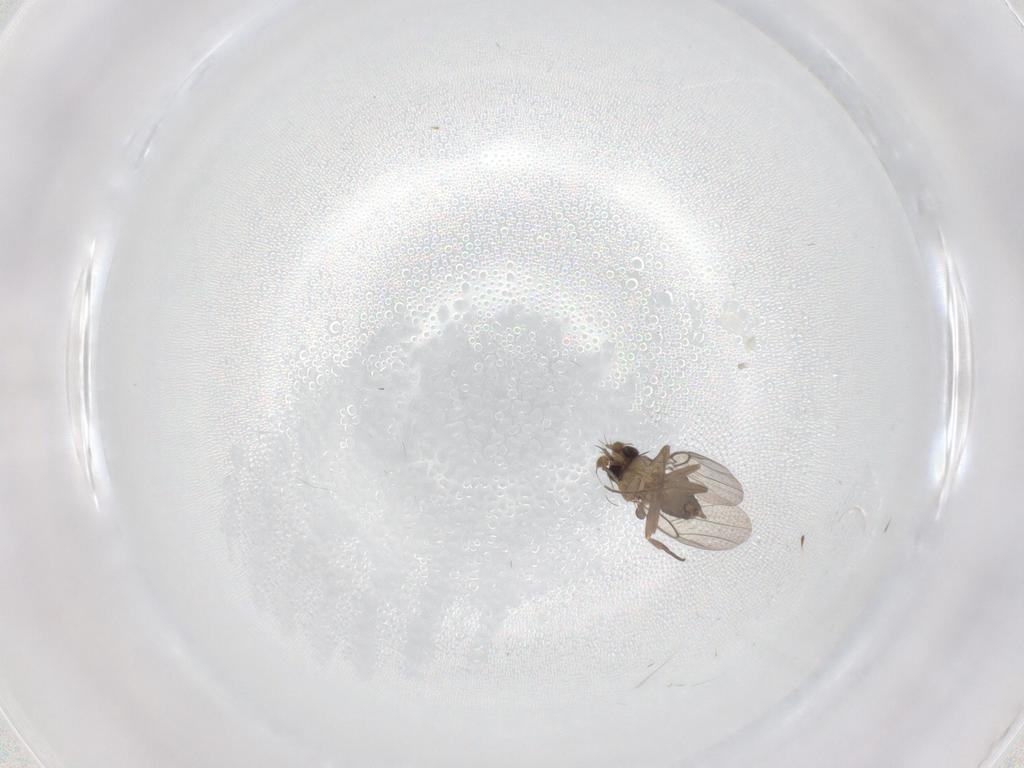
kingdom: Animalia
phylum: Arthropoda
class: Insecta
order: Diptera
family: Phoridae
